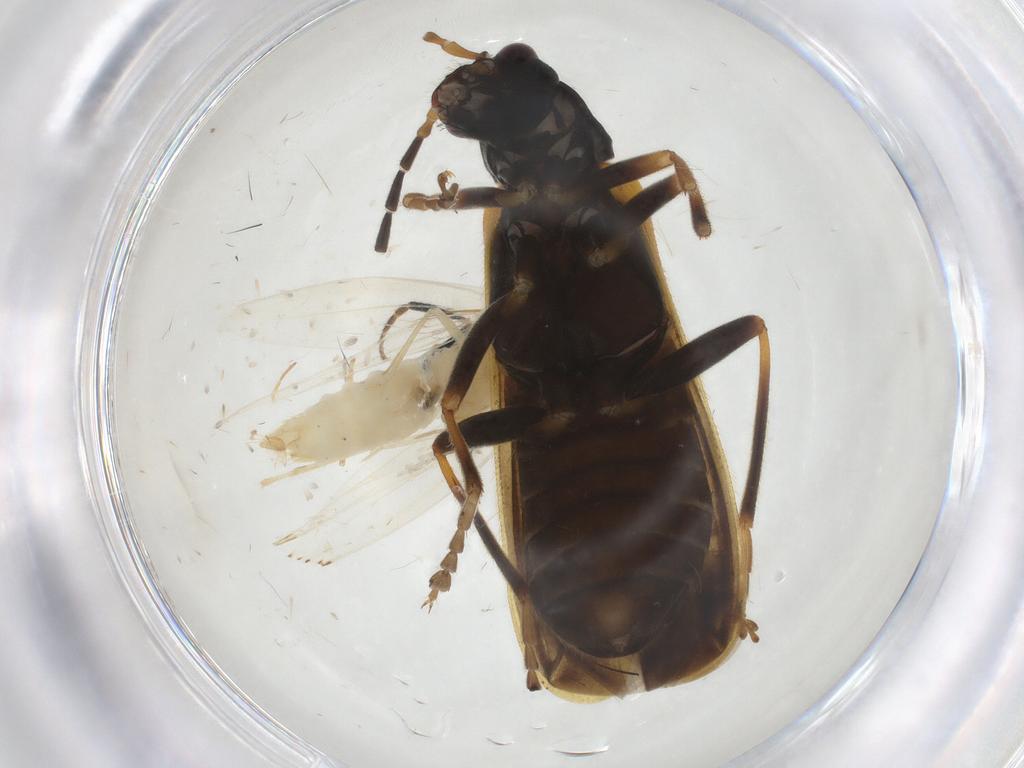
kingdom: Animalia
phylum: Arthropoda
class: Insecta
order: Coleoptera
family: Cantharidae
